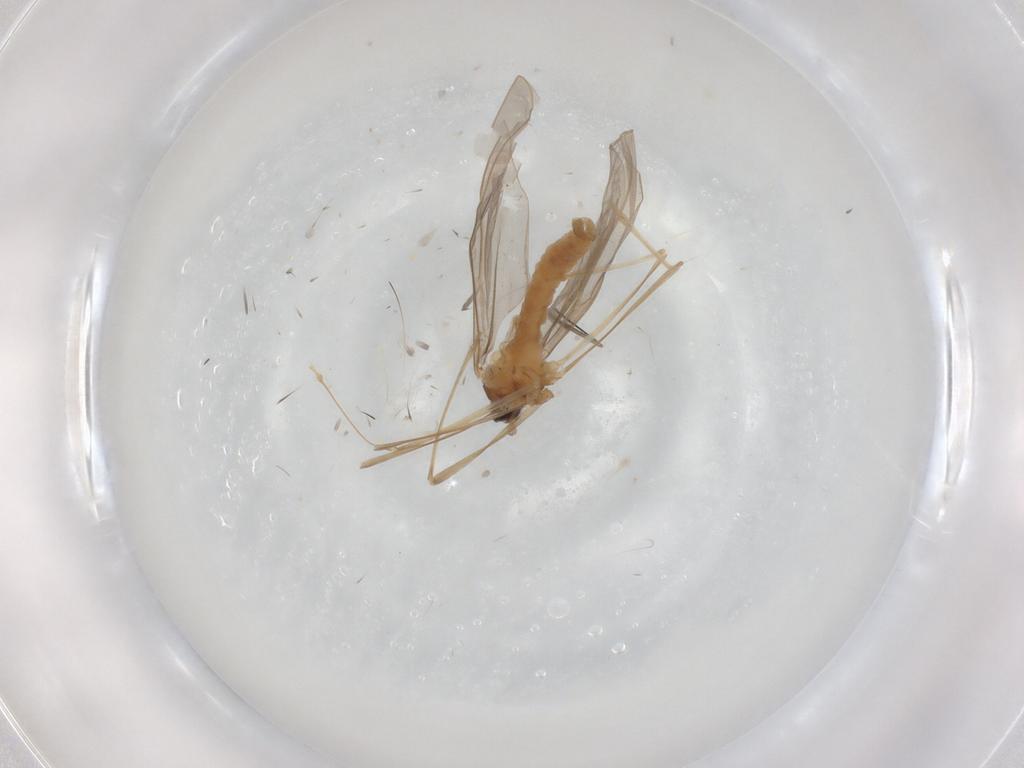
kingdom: Animalia
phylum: Arthropoda
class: Insecta
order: Diptera
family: Cecidomyiidae
